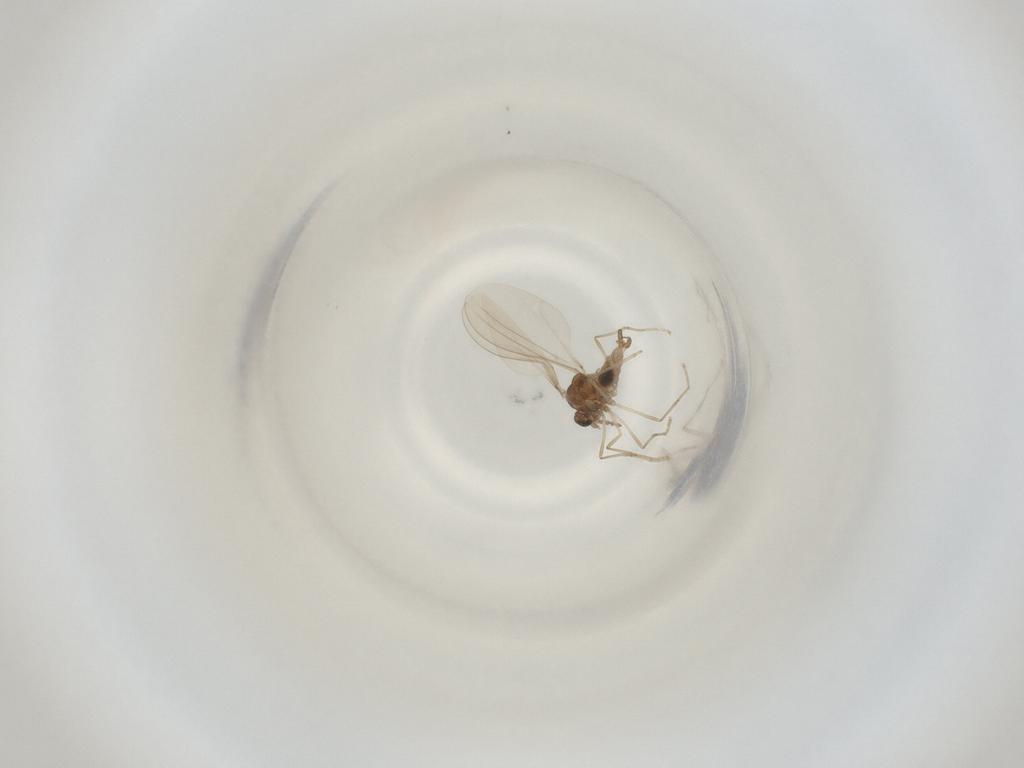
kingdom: Animalia
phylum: Arthropoda
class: Insecta
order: Diptera
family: Cecidomyiidae
